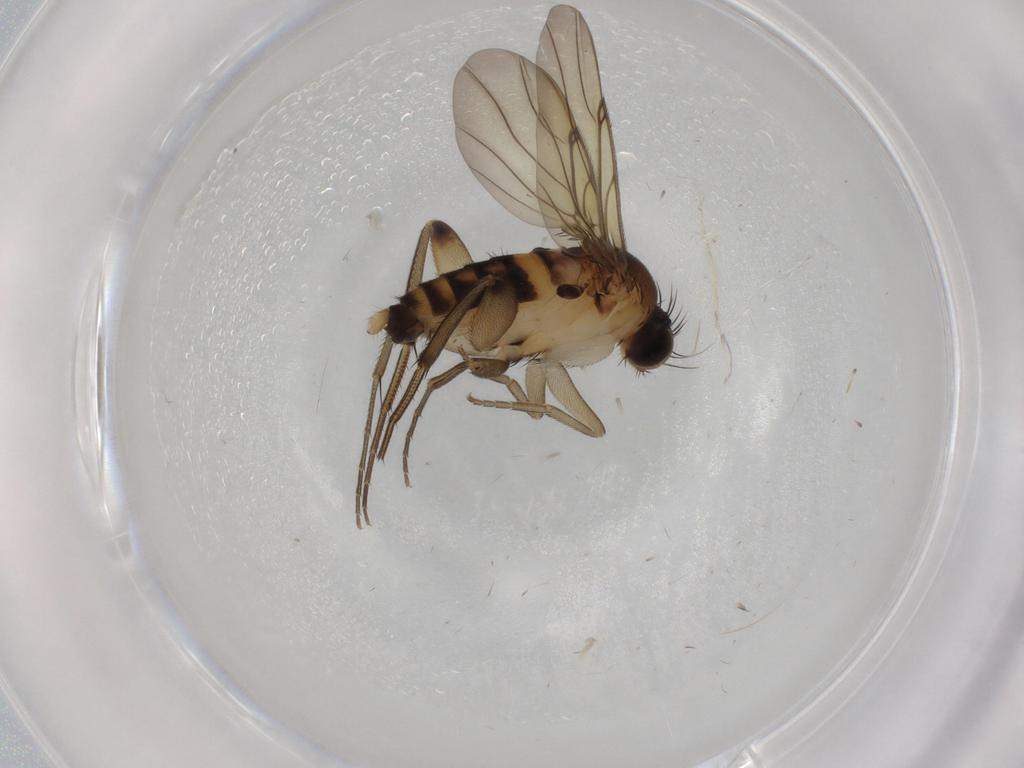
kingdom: Animalia
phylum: Arthropoda
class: Insecta
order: Diptera
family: Phoridae
